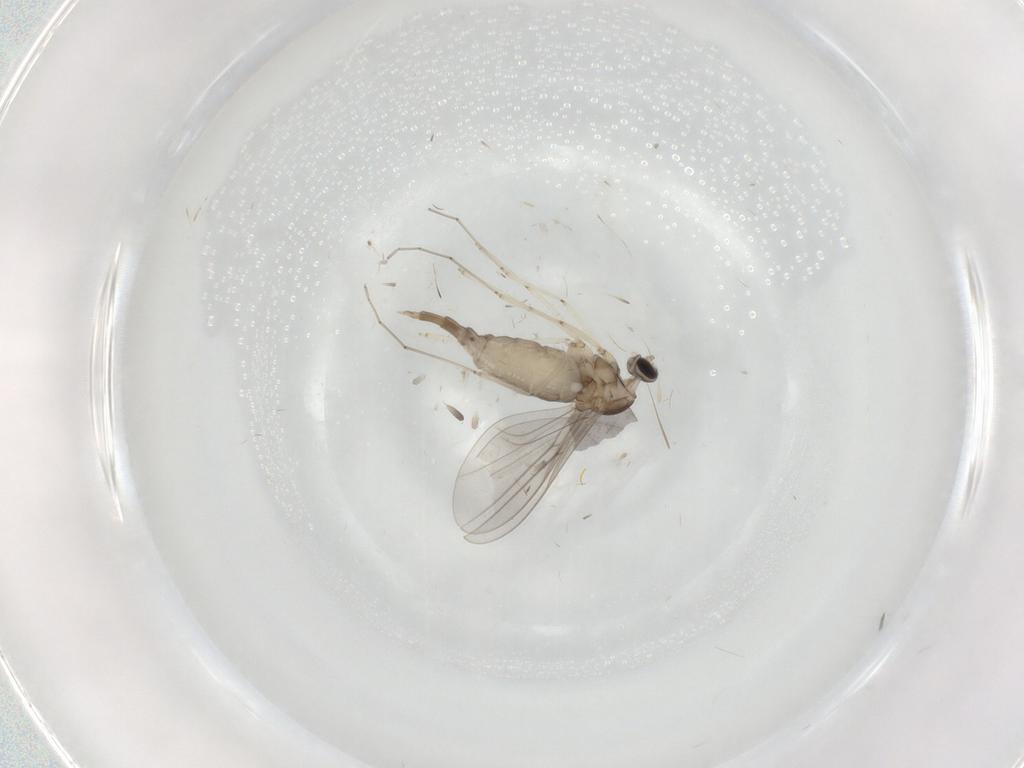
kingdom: Animalia
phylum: Arthropoda
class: Insecta
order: Diptera
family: Cecidomyiidae
